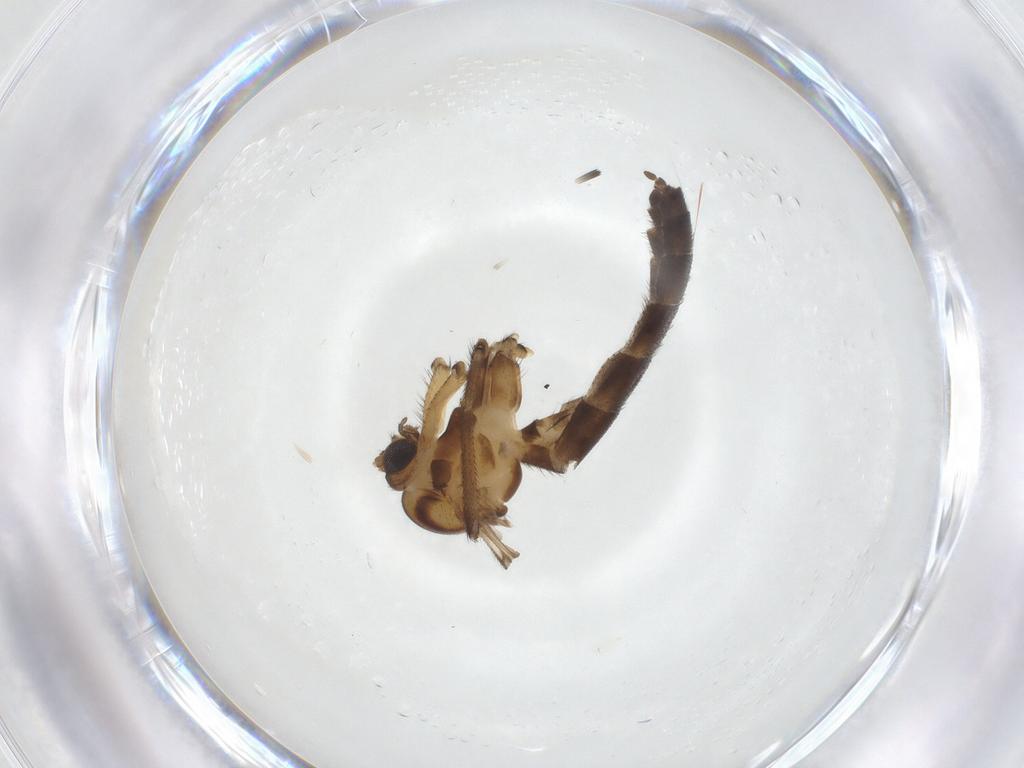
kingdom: Animalia
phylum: Arthropoda
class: Insecta
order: Diptera
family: Keroplatidae
